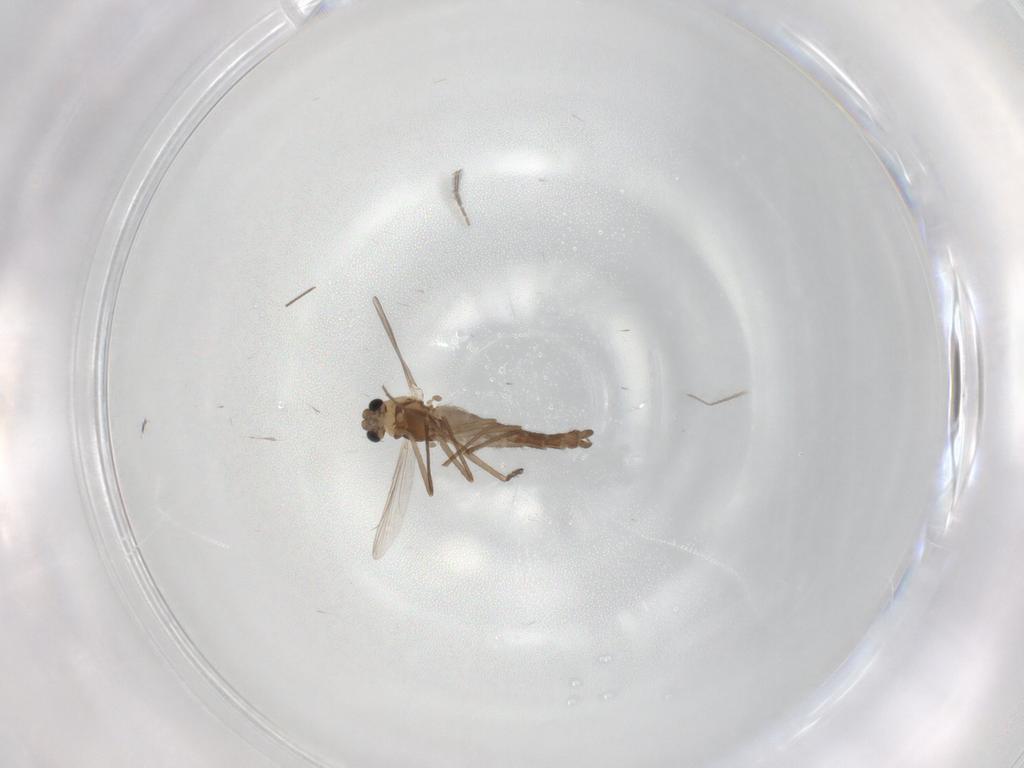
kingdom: Animalia
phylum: Arthropoda
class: Insecta
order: Diptera
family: Chironomidae
